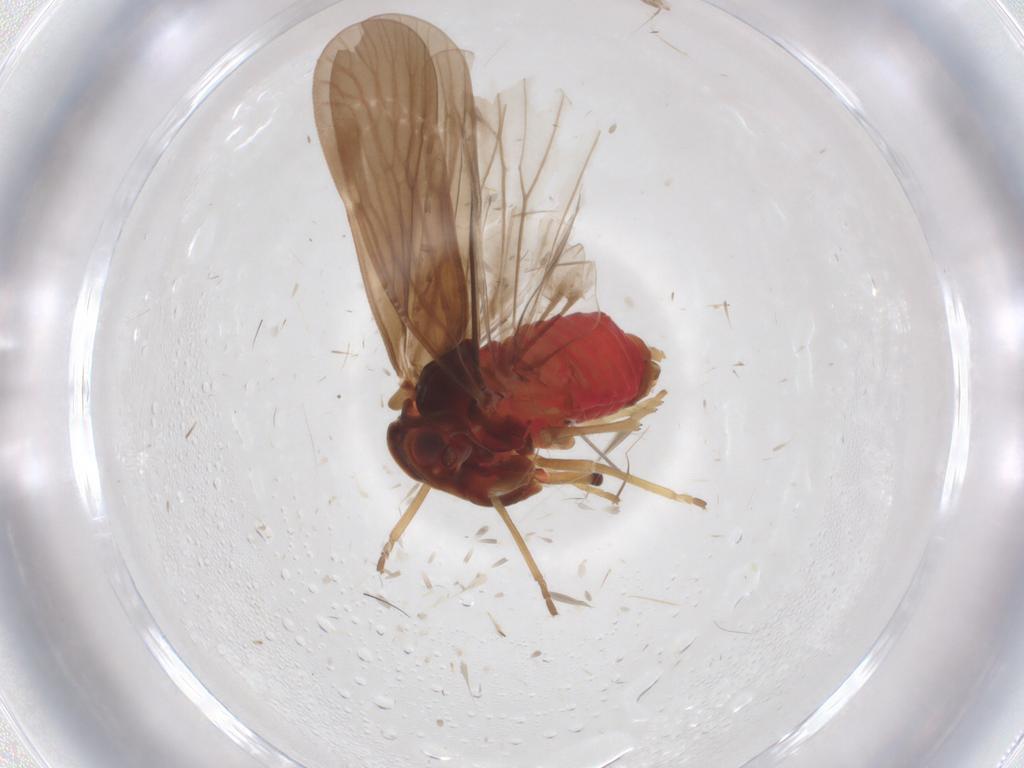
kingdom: Animalia
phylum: Arthropoda
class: Insecta
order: Hemiptera
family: Derbidae
